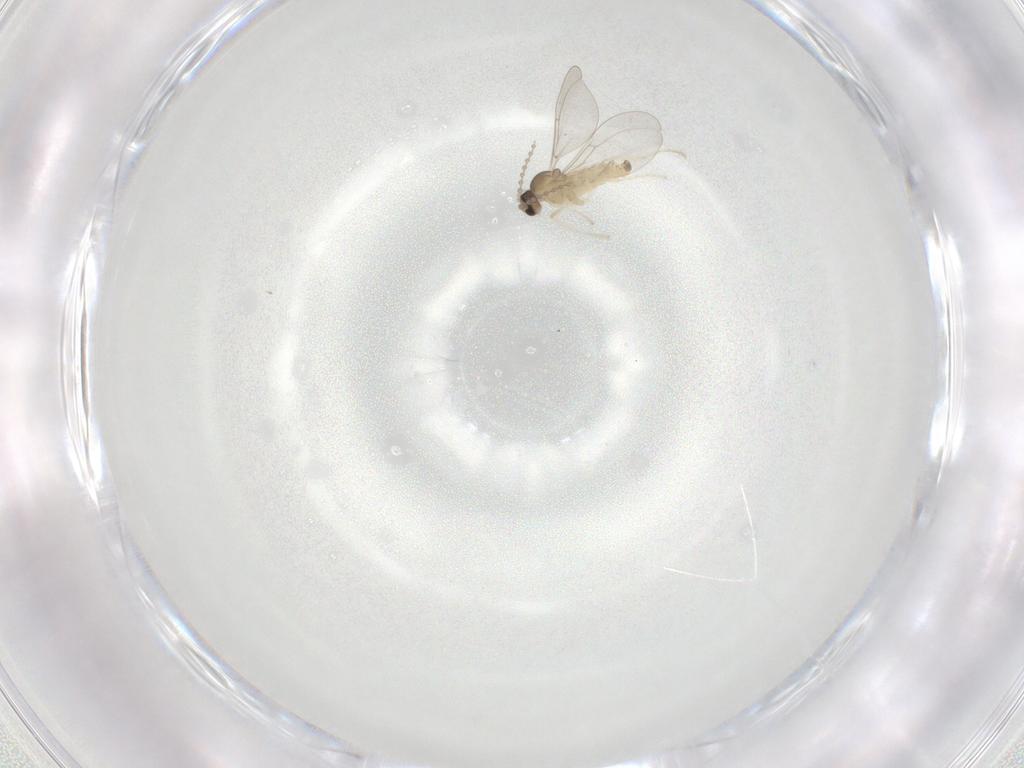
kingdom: Animalia
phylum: Arthropoda
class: Insecta
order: Diptera
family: Cecidomyiidae
